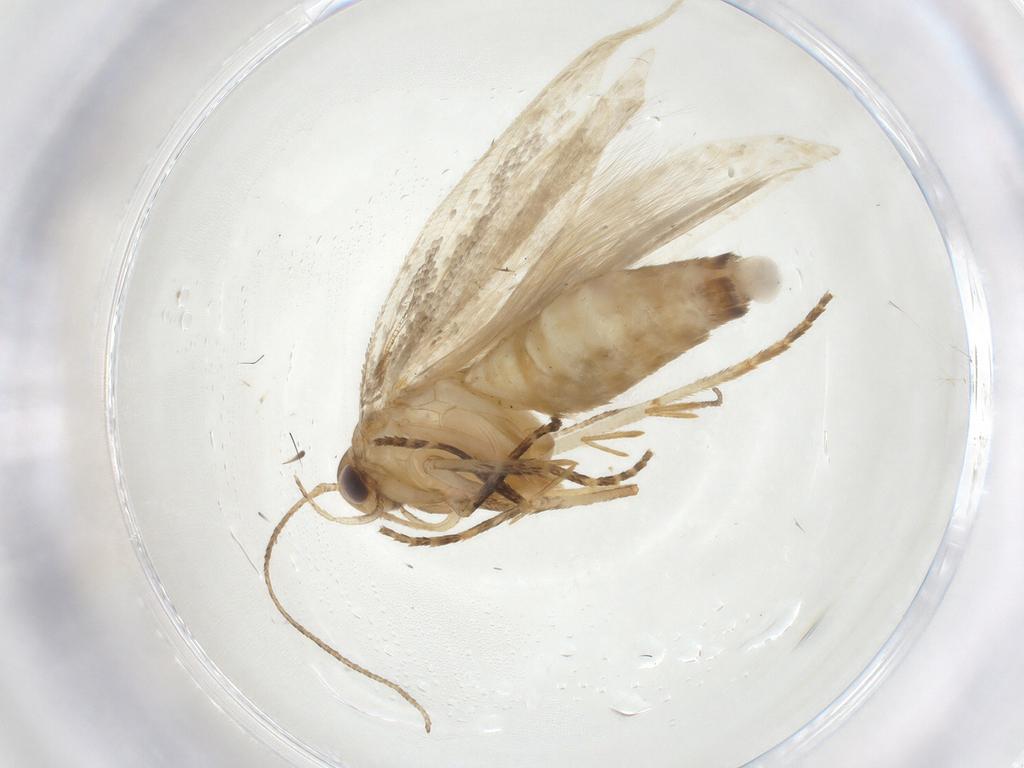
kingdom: Animalia
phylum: Arthropoda
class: Insecta
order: Lepidoptera
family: Gelechiidae
